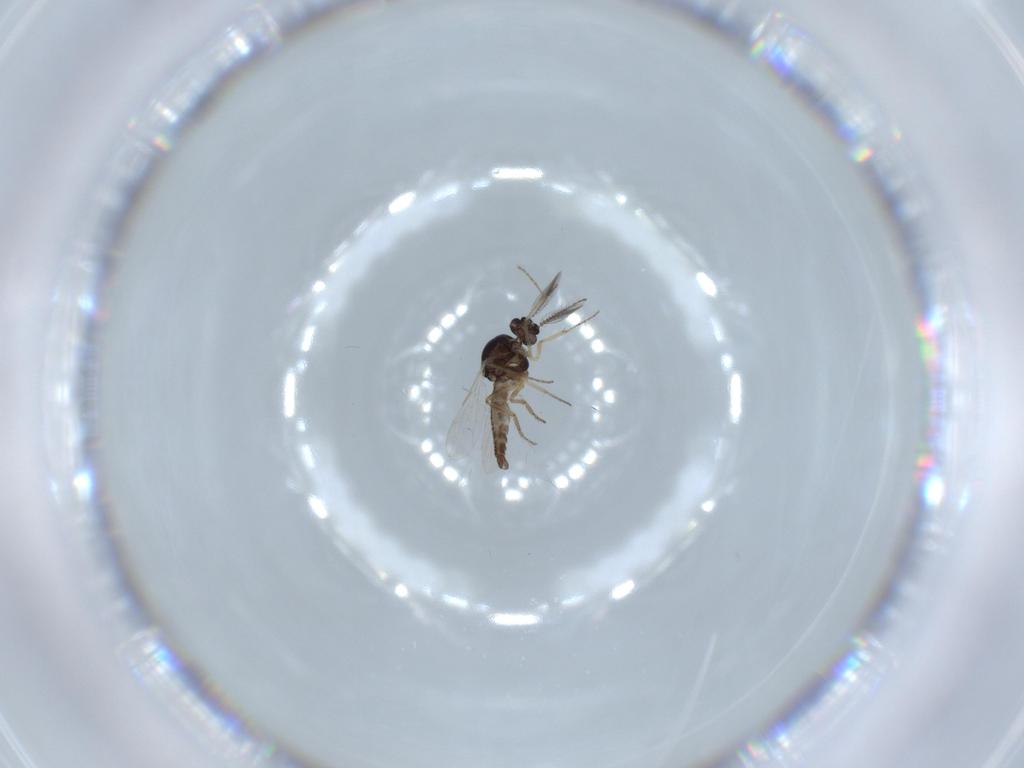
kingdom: Animalia
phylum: Arthropoda
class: Insecta
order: Diptera
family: Ceratopogonidae
